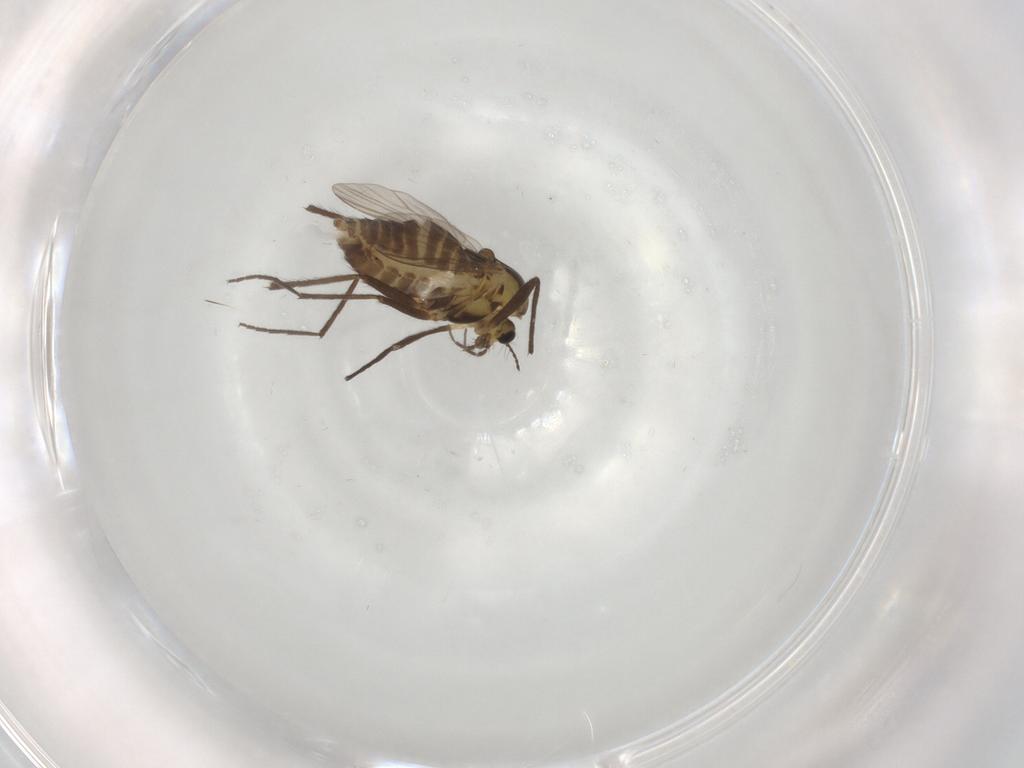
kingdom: Animalia
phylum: Arthropoda
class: Insecta
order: Diptera
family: Chironomidae
